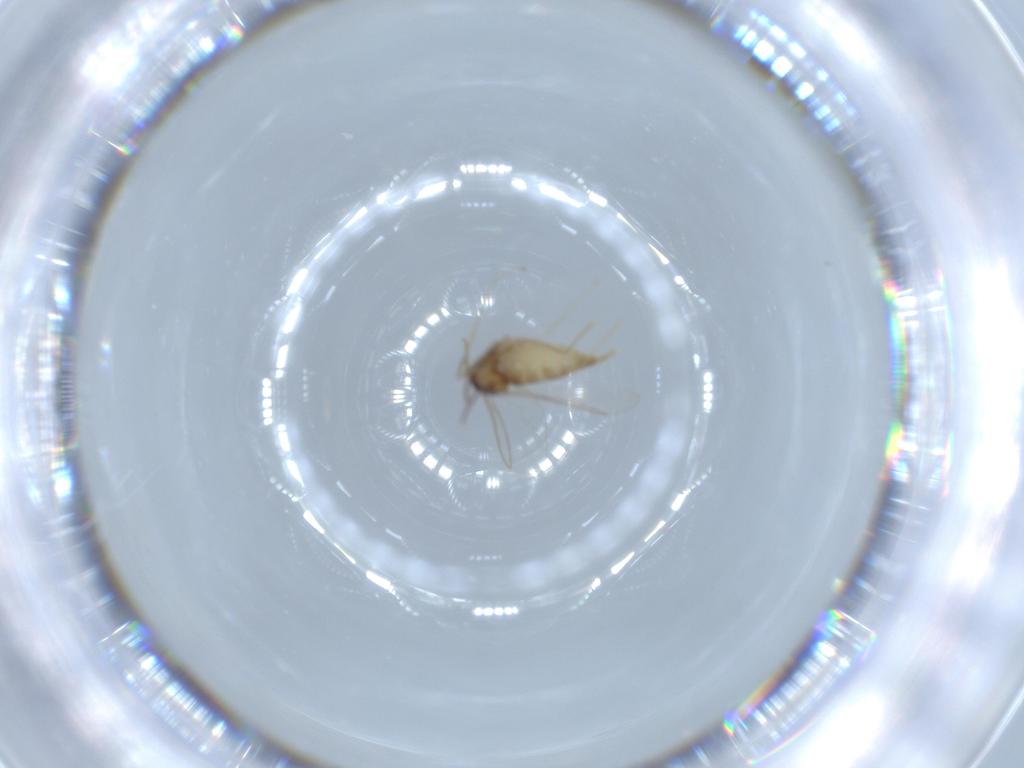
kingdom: Animalia
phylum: Arthropoda
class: Insecta
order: Diptera
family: Cecidomyiidae
